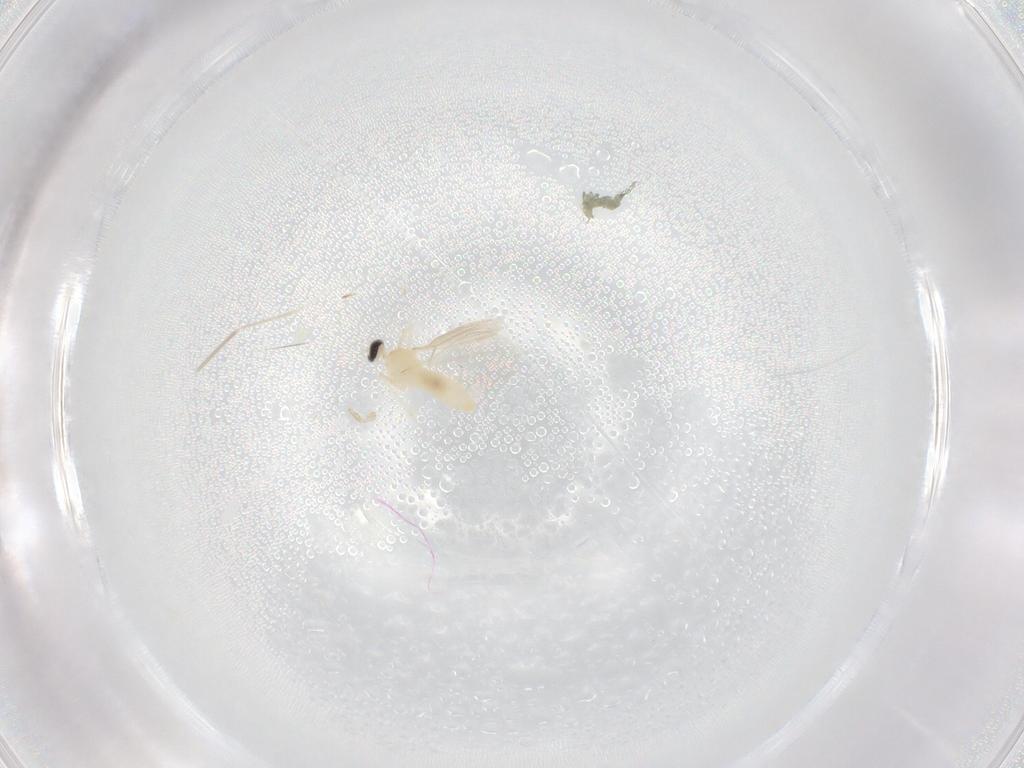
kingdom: Animalia
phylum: Arthropoda
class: Insecta
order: Diptera
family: Cecidomyiidae
